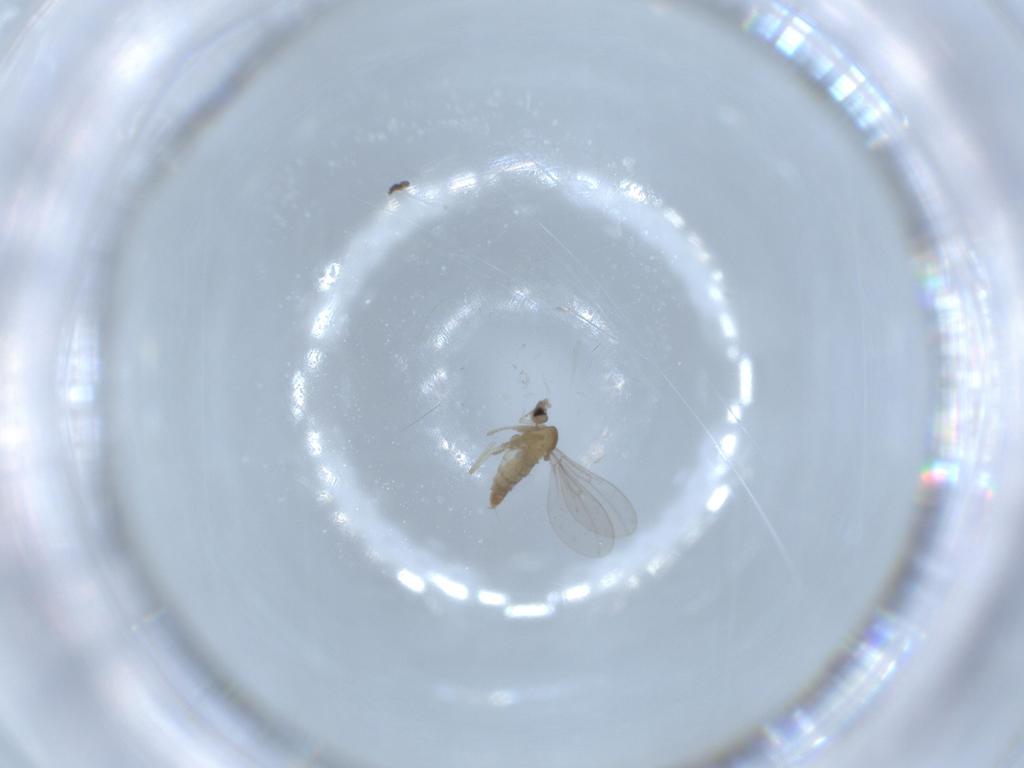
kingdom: Animalia
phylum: Arthropoda
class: Insecta
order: Diptera
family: Cecidomyiidae
